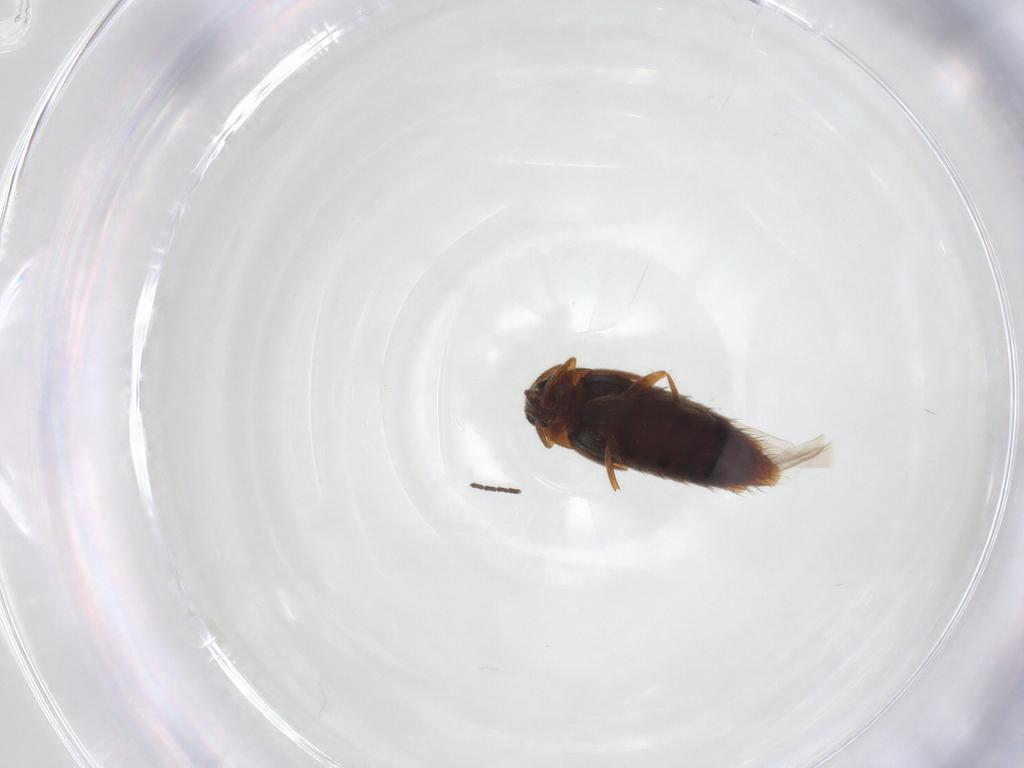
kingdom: Animalia
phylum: Arthropoda
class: Insecta
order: Coleoptera
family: Staphylinidae
